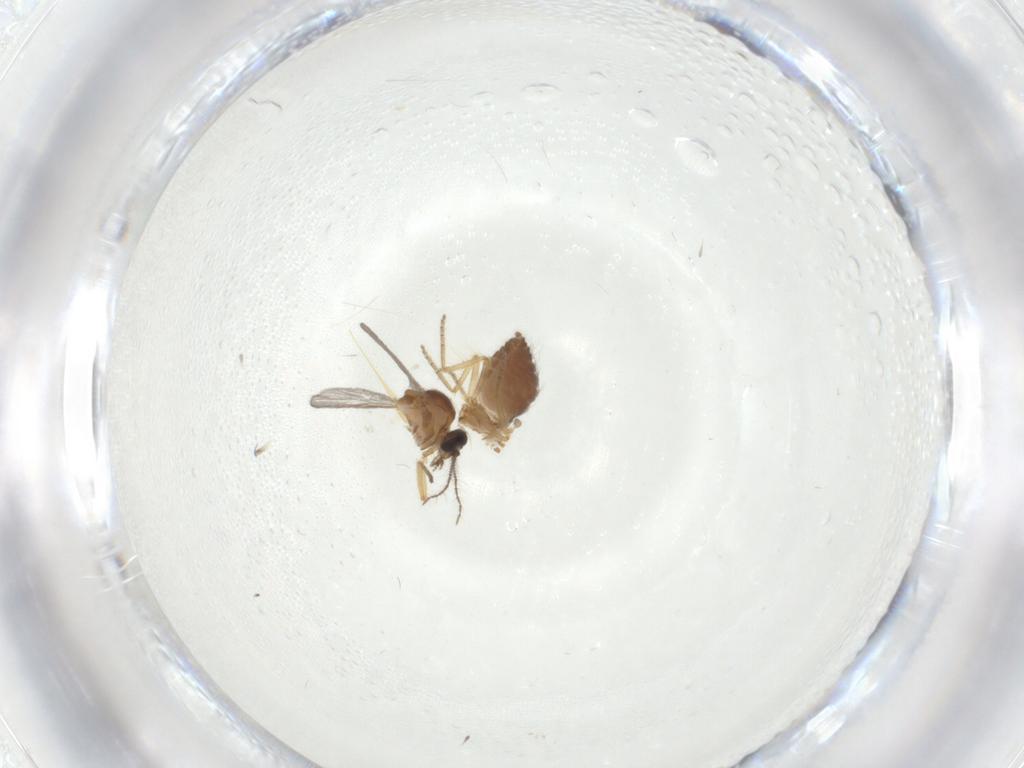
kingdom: Animalia
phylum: Arthropoda
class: Insecta
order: Diptera
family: Ceratopogonidae
